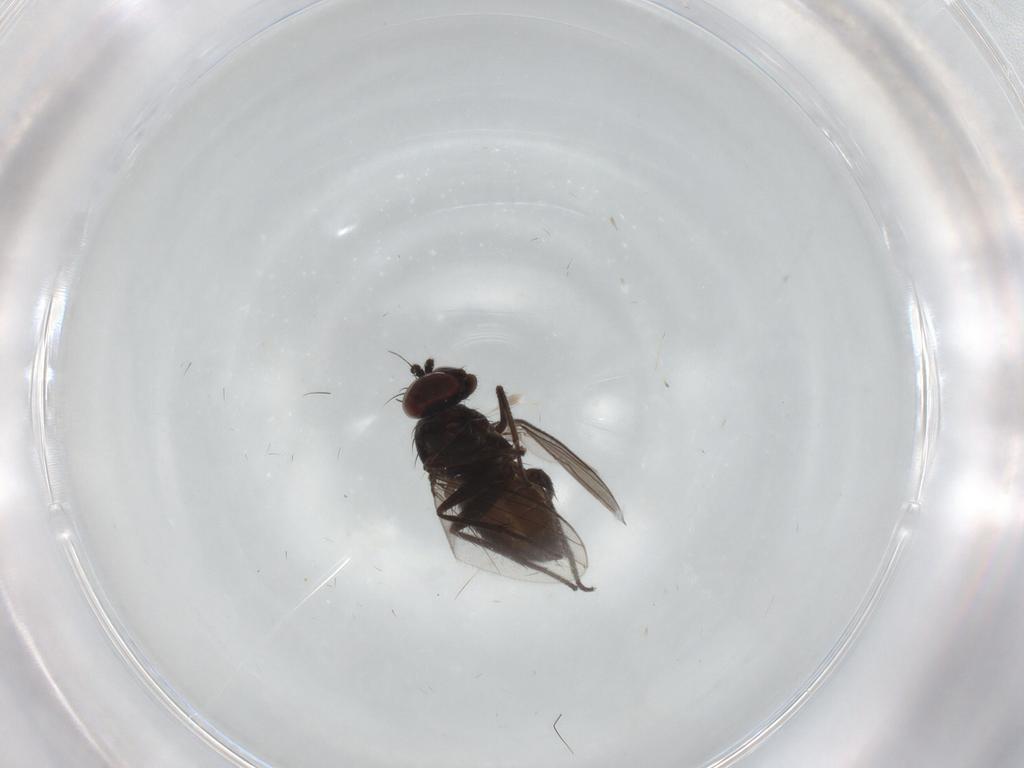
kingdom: Animalia
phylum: Arthropoda
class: Insecta
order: Diptera
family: Dolichopodidae
